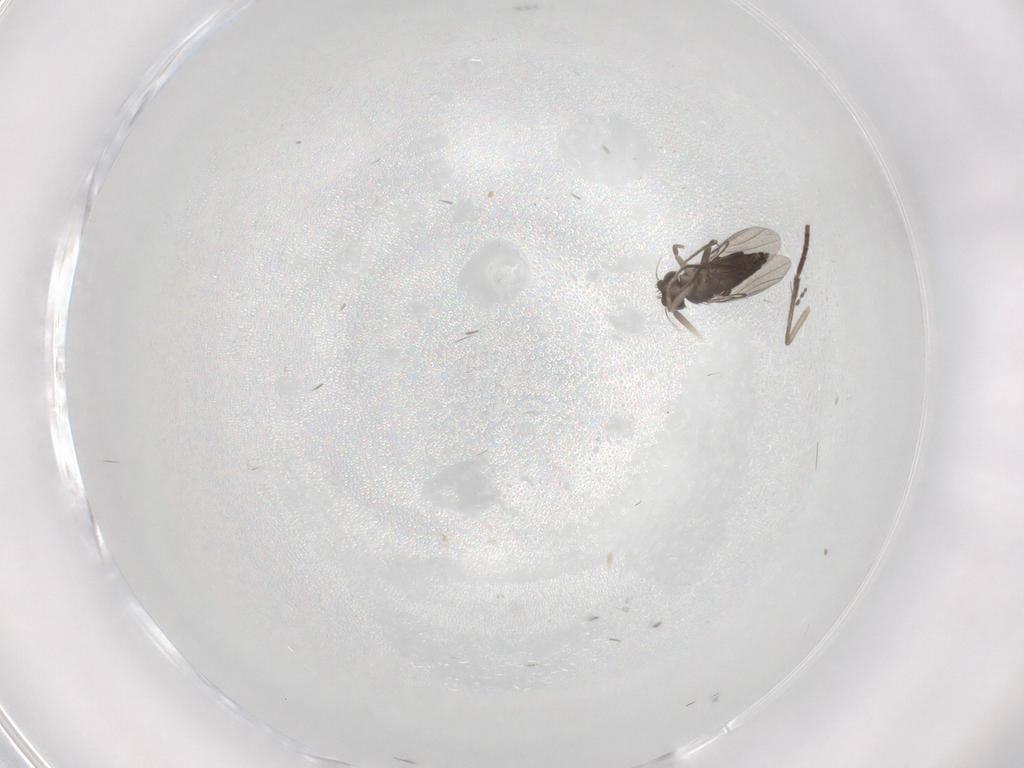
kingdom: Animalia
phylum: Arthropoda
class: Insecta
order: Diptera
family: Phoridae
